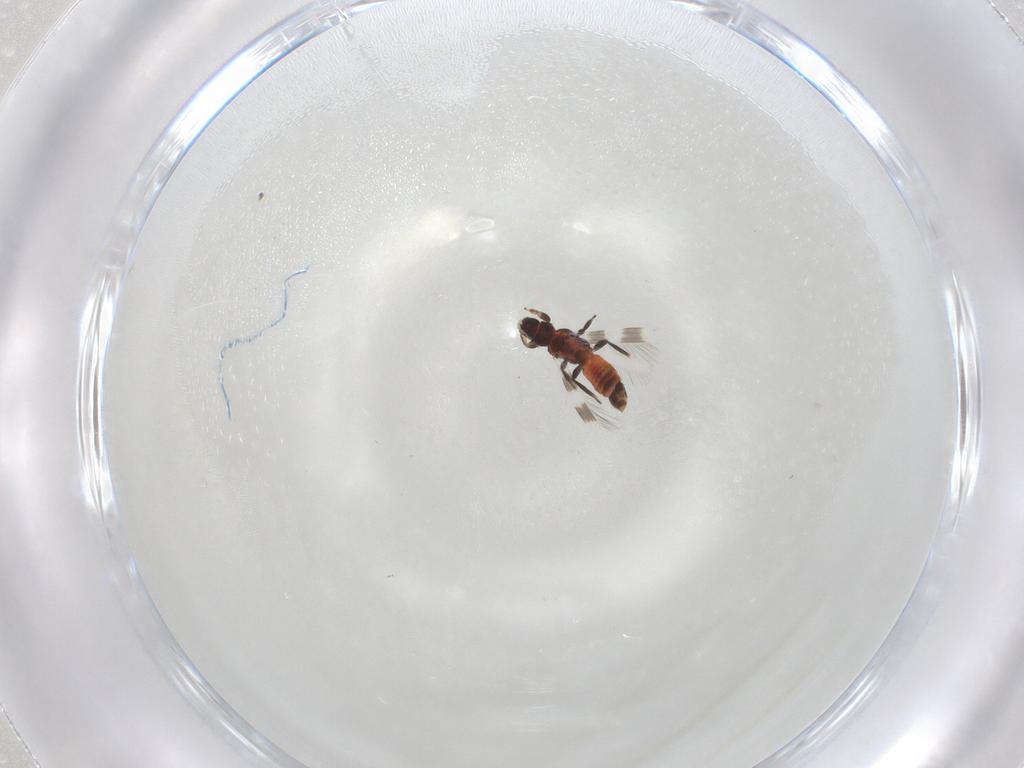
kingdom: Animalia
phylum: Arthropoda
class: Insecta
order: Thysanoptera
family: Aeolothripidae
